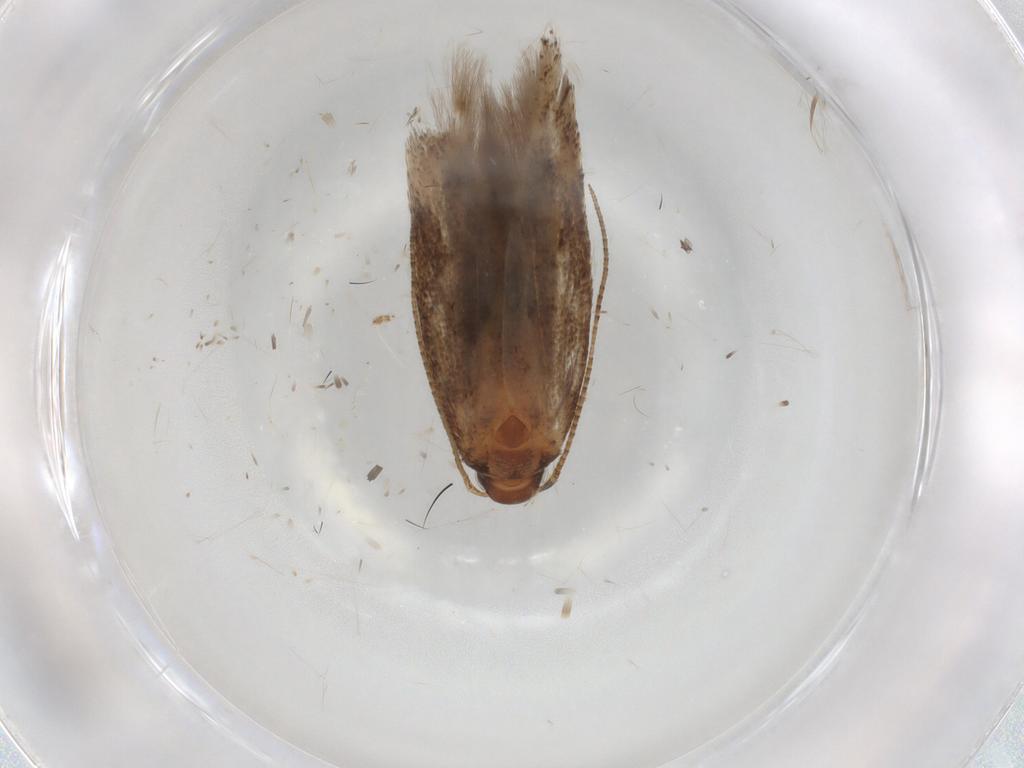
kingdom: Animalia
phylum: Arthropoda
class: Insecta
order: Lepidoptera
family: Gelechiidae
